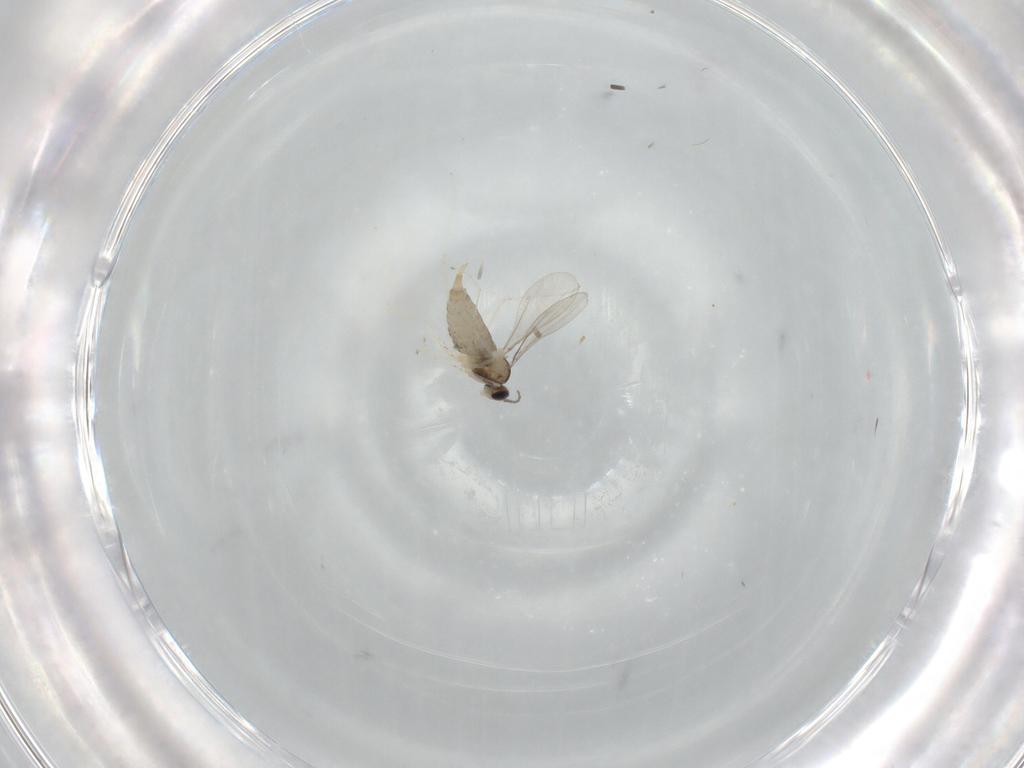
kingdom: Animalia
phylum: Arthropoda
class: Insecta
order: Diptera
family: Cecidomyiidae
